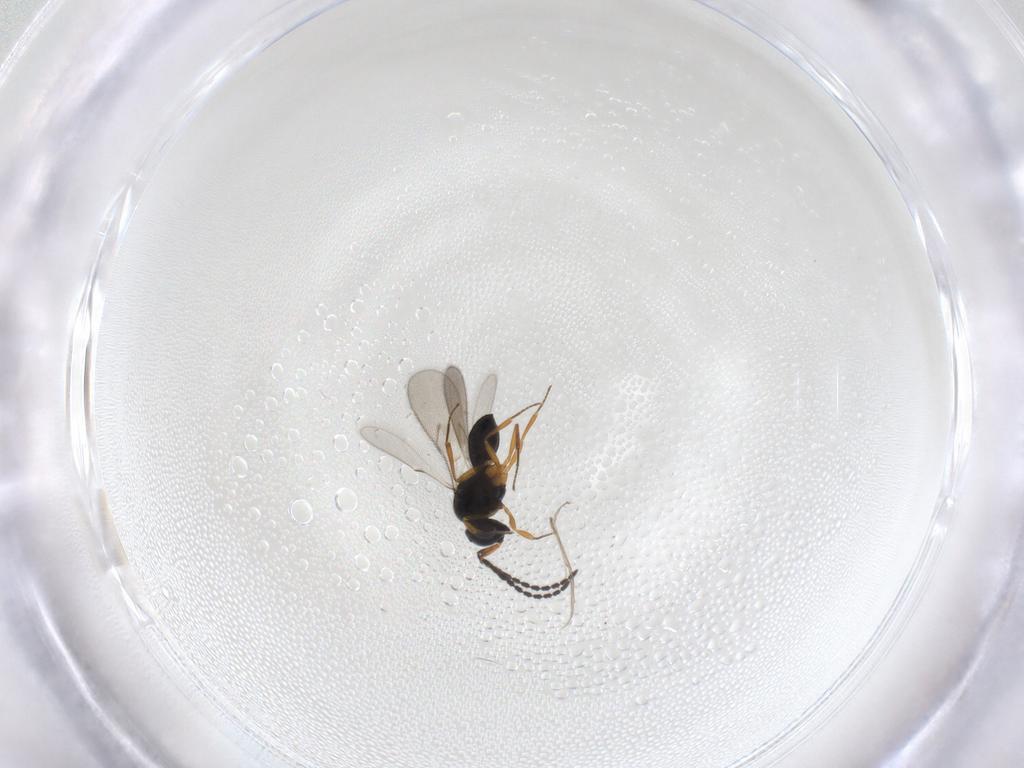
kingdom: Animalia
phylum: Arthropoda
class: Insecta
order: Hymenoptera
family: Scelionidae
